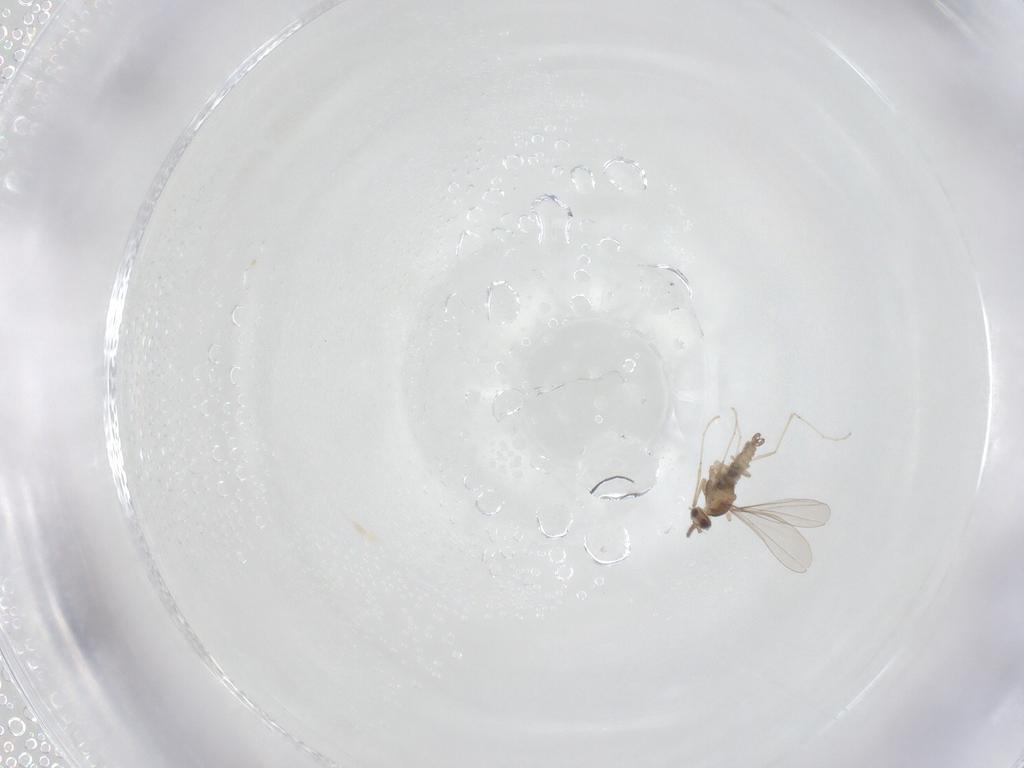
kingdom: Animalia
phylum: Arthropoda
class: Insecta
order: Diptera
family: Cecidomyiidae
